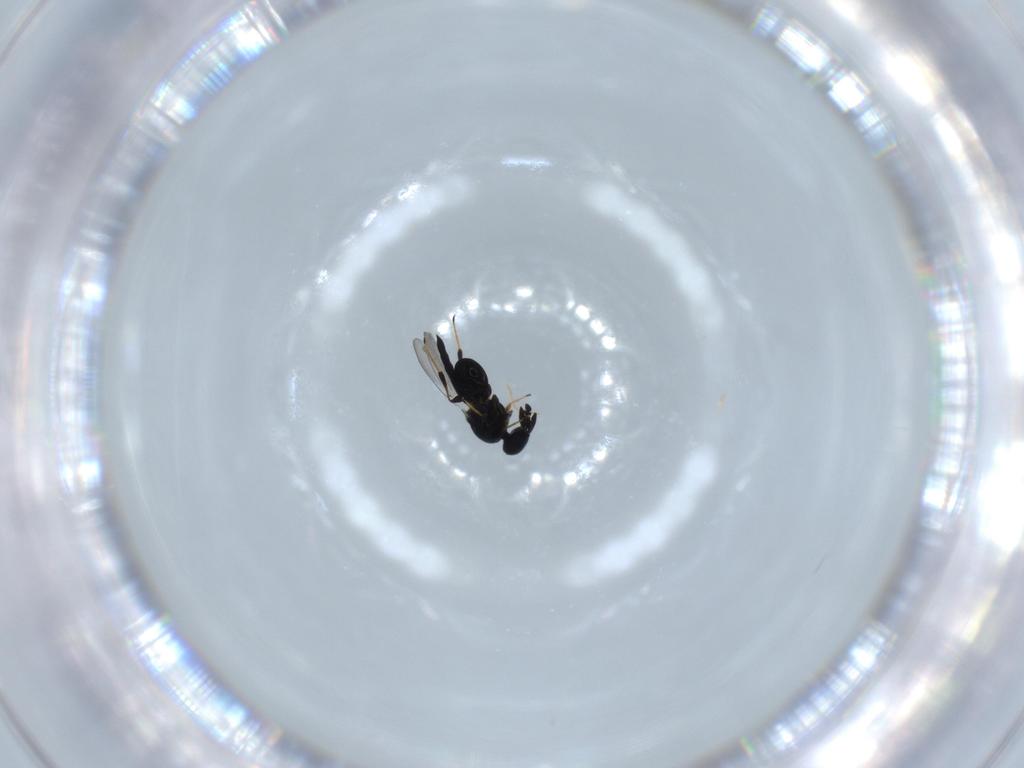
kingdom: Animalia
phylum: Arthropoda
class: Insecta
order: Hymenoptera
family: Platygastridae
